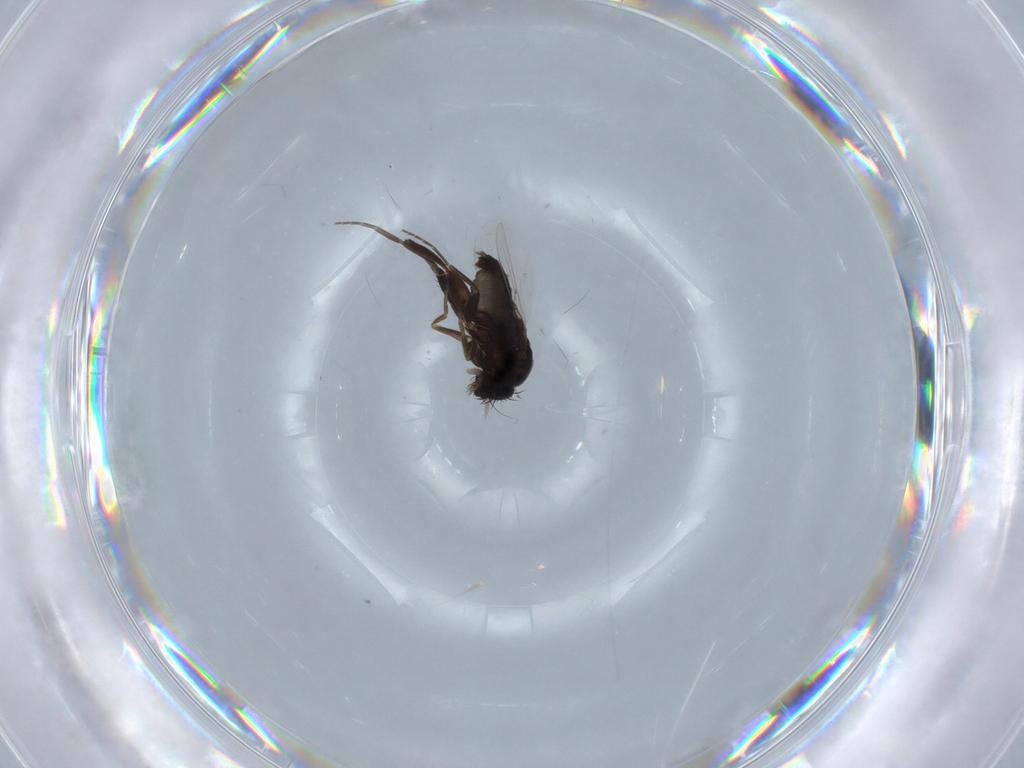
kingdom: Animalia
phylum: Arthropoda
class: Insecta
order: Diptera
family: Phoridae
